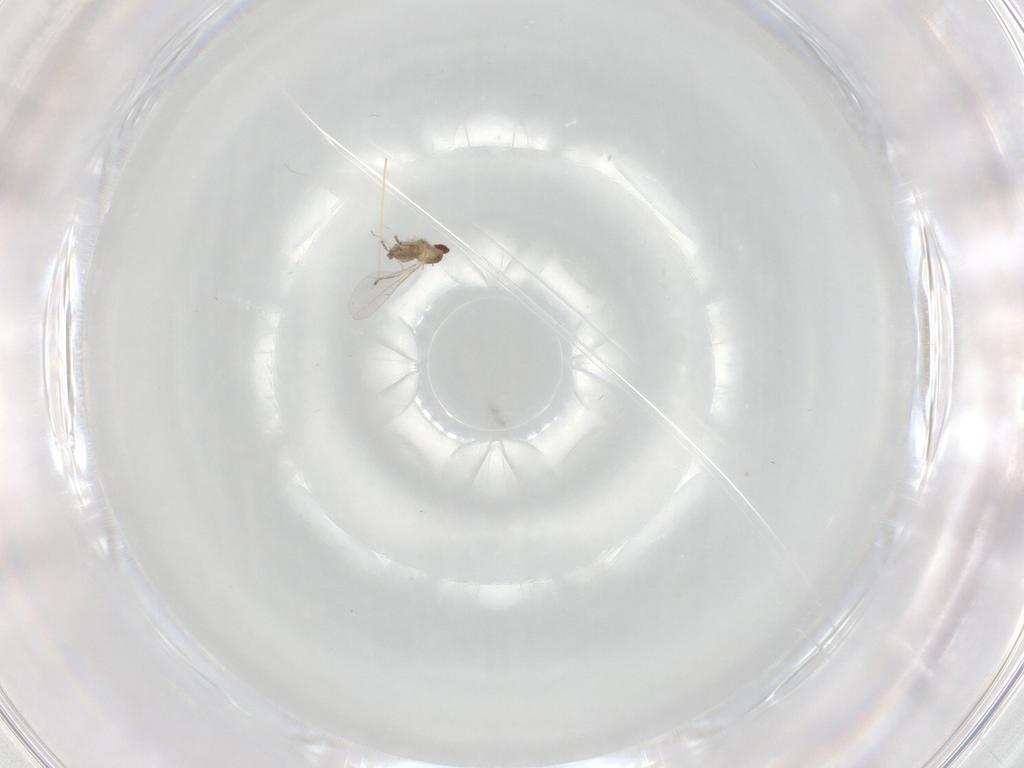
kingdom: Animalia
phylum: Arthropoda
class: Insecta
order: Diptera
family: Cecidomyiidae
